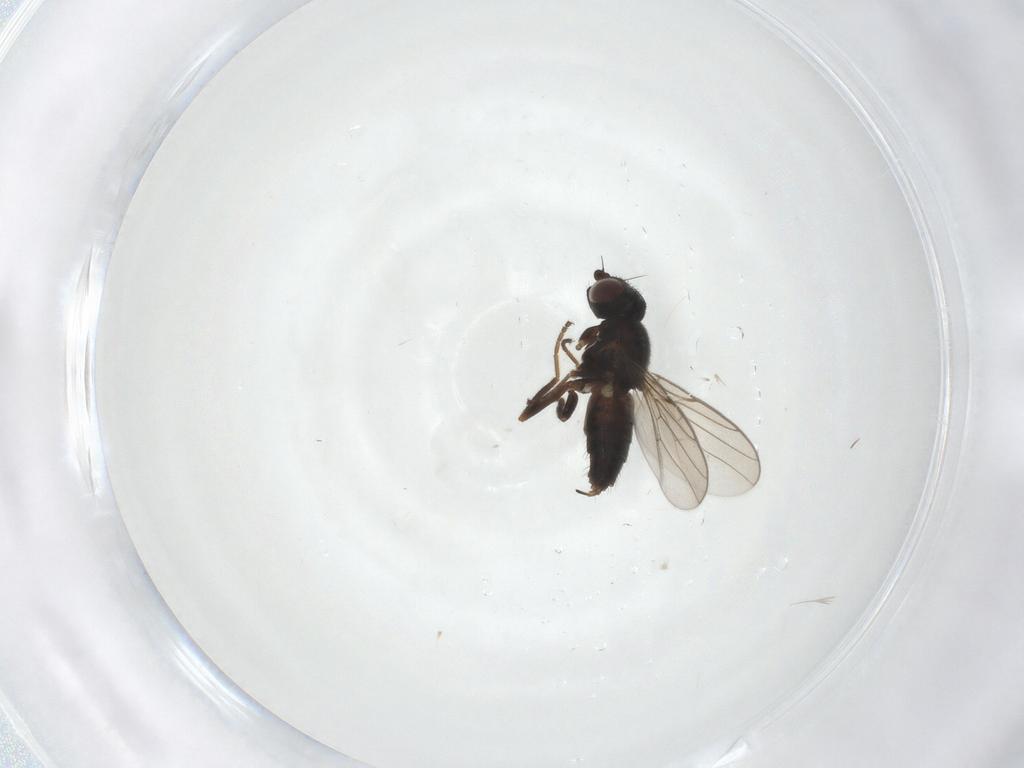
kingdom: Animalia
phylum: Arthropoda
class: Insecta
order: Diptera
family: Chloropidae
